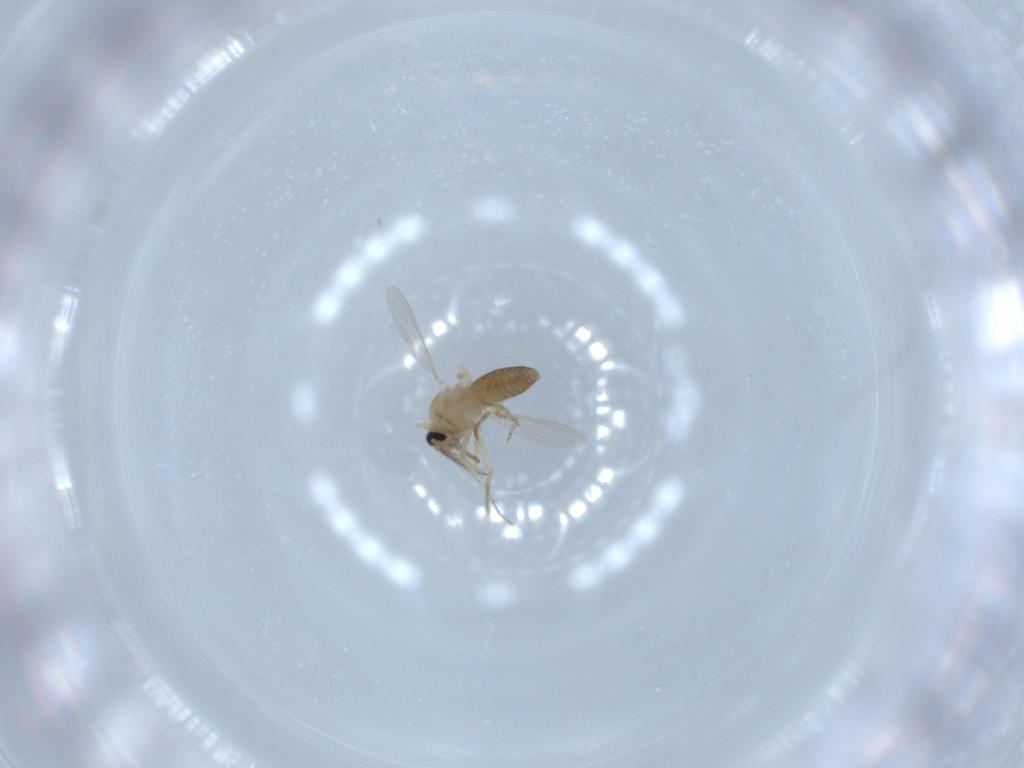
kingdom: Animalia
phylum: Arthropoda
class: Insecta
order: Diptera
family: Ceratopogonidae
